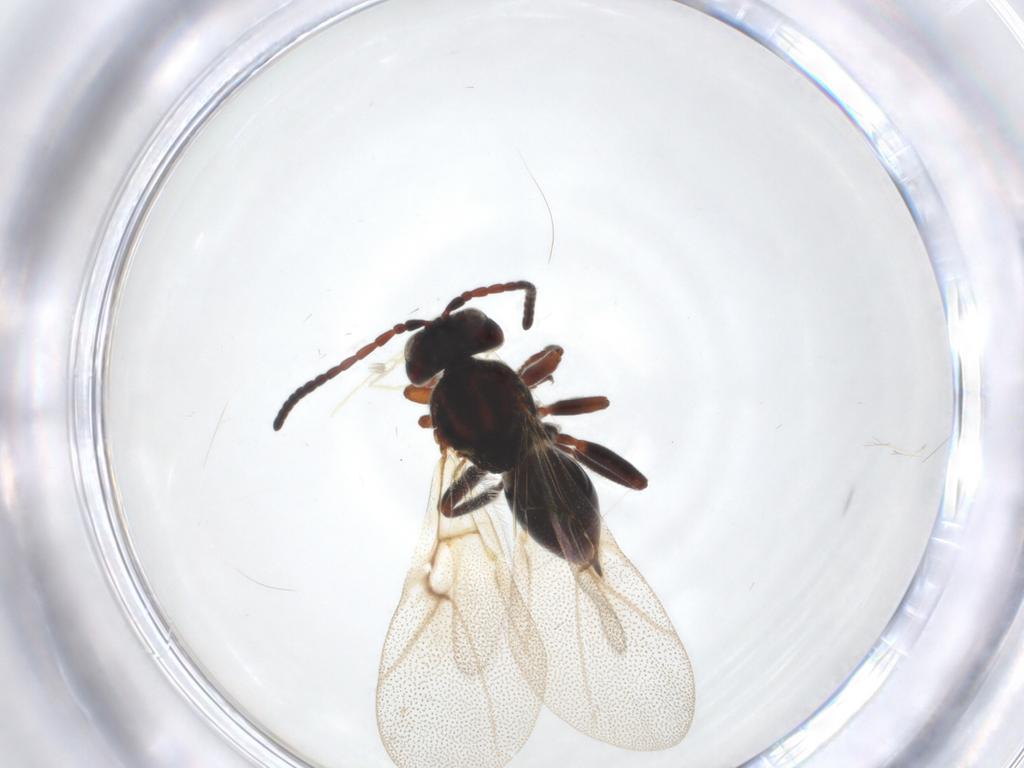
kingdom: Animalia
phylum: Arthropoda
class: Insecta
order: Hymenoptera
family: Cynipidae
